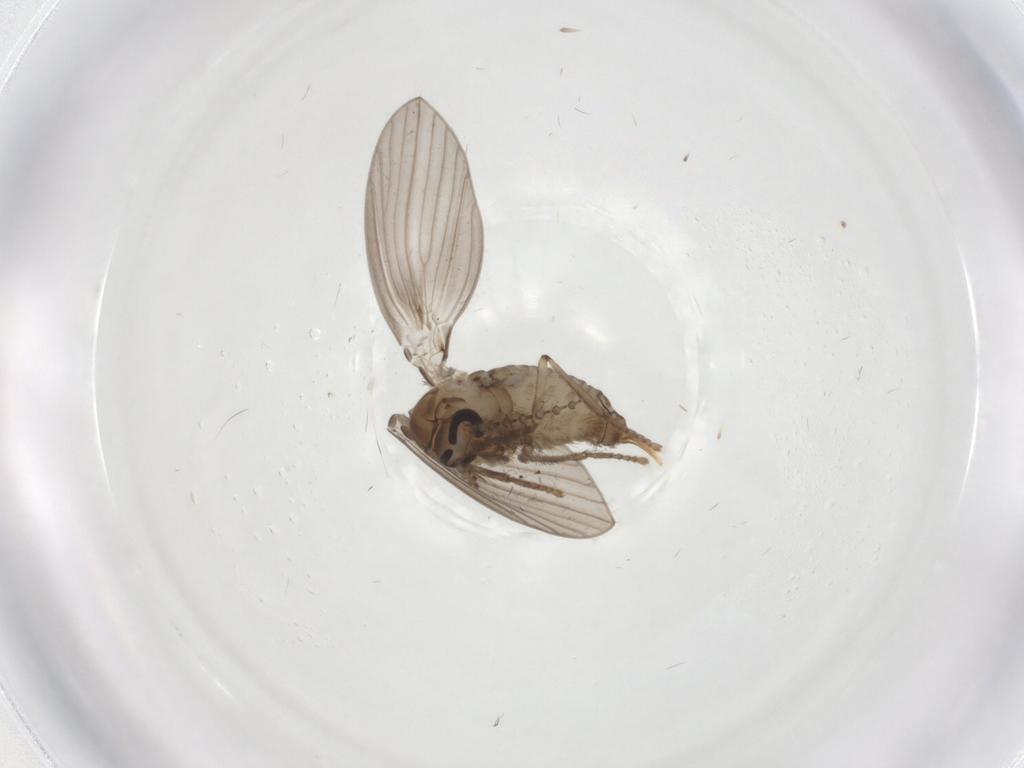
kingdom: Animalia
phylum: Arthropoda
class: Insecta
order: Diptera
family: Psychodidae
